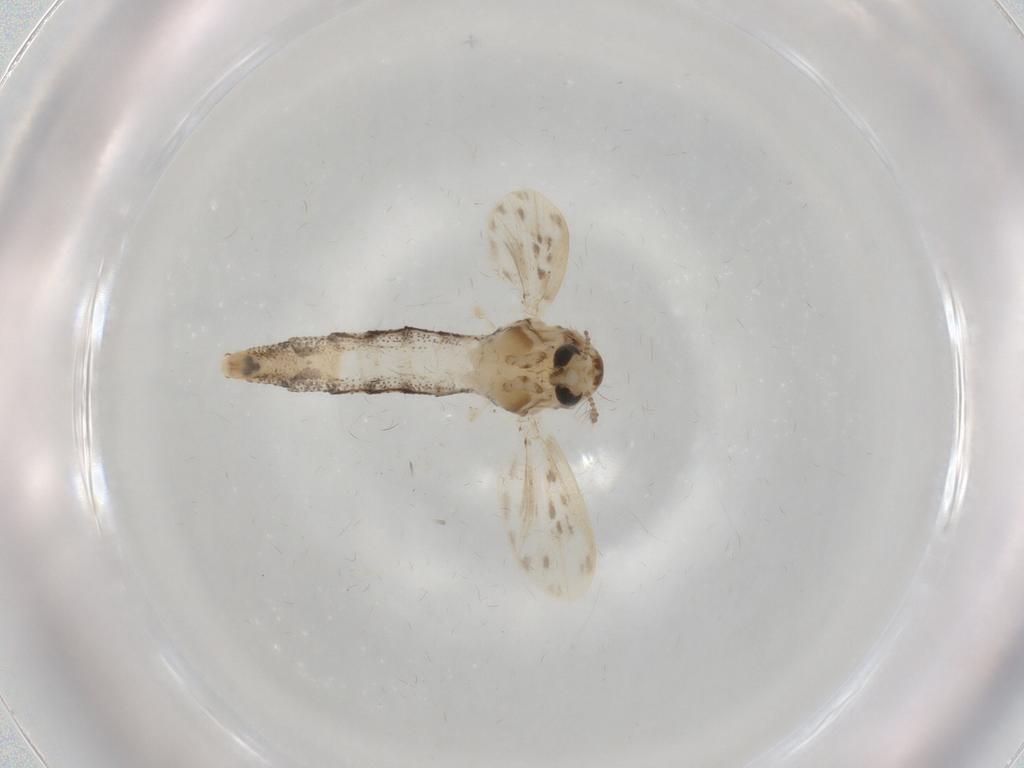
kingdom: Animalia
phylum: Arthropoda
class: Insecta
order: Diptera
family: Chaoboridae
